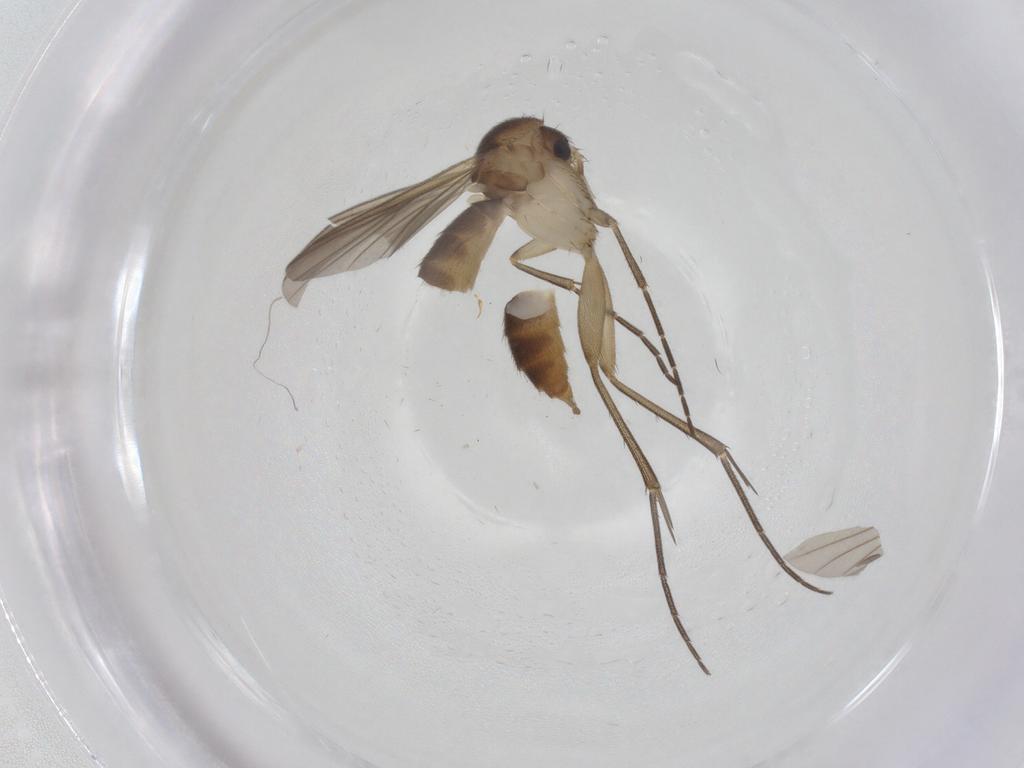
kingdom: Animalia
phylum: Arthropoda
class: Insecta
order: Diptera
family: Mycetophilidae
